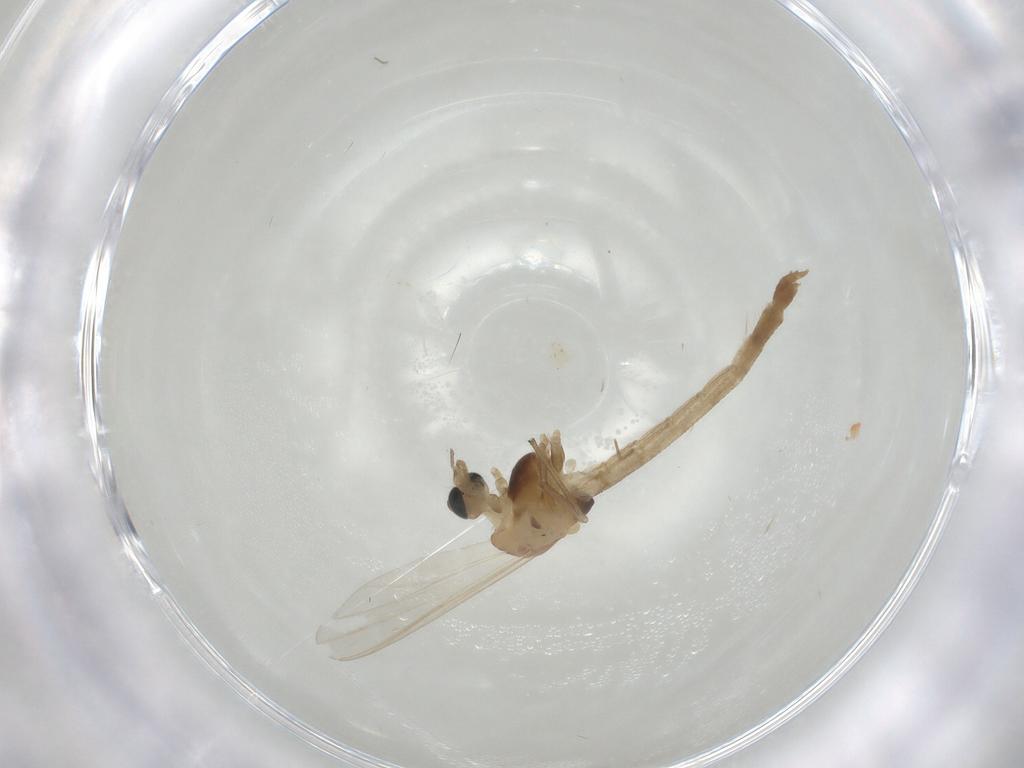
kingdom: Animalia
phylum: Arthropoda
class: Insecta
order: Diptera
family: Chironomidae
